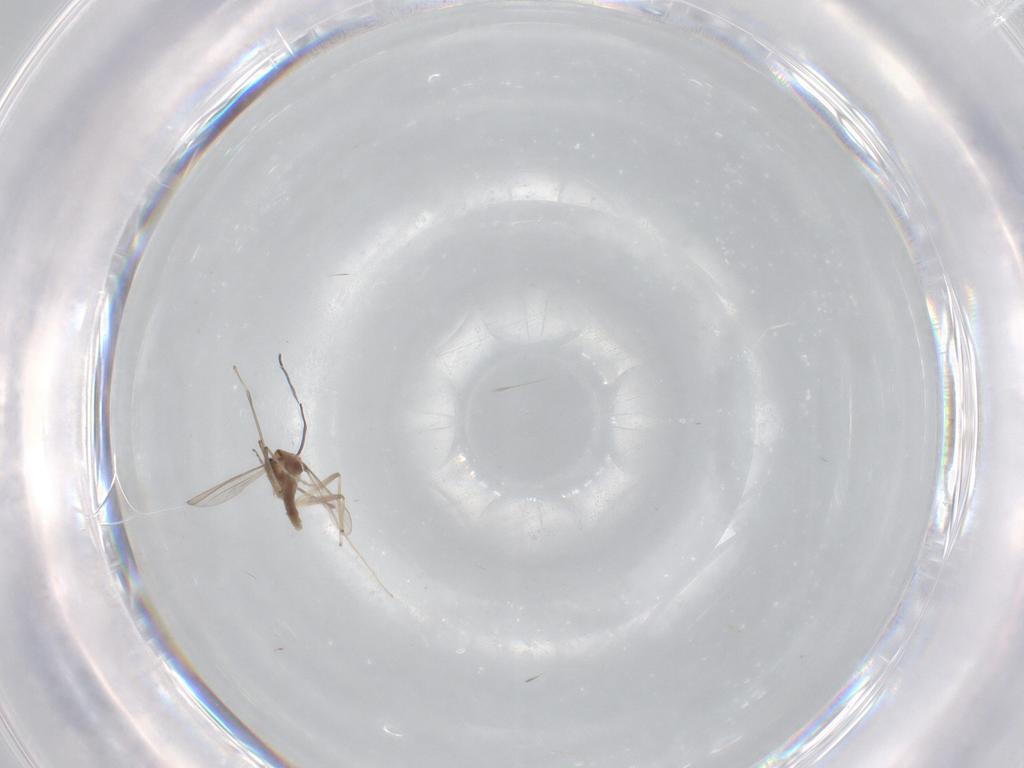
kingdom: Animalia
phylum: Arthropoda
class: Insecta
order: Diptera
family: Chironomidae
